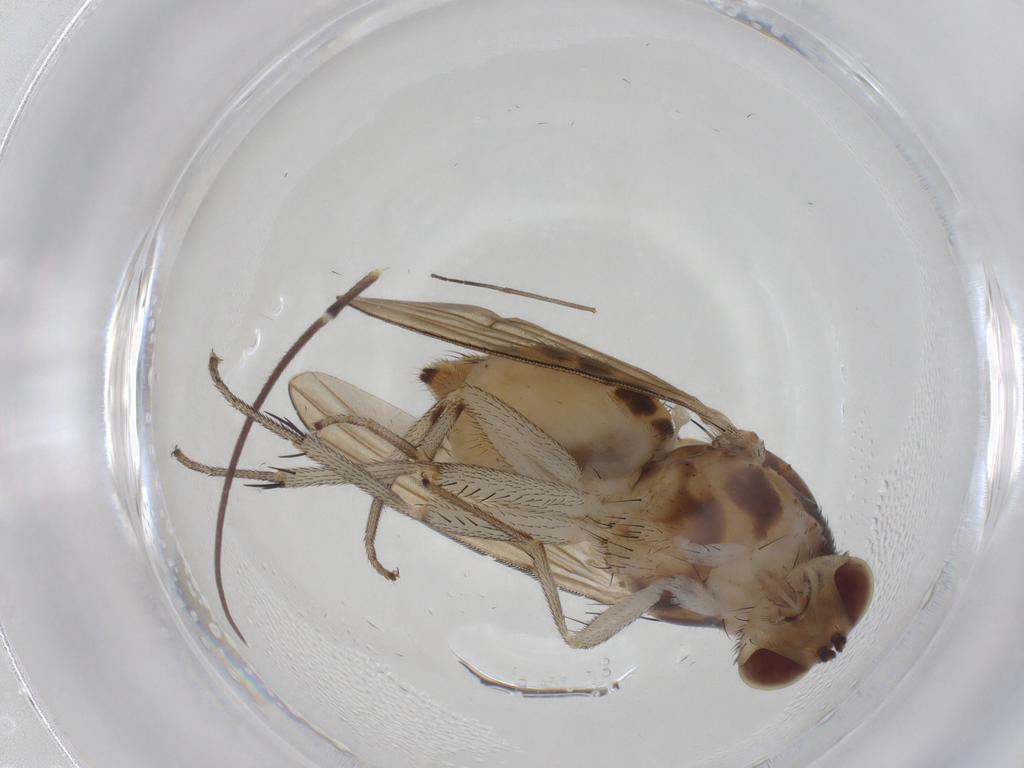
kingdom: Animalia
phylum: Arthropoda
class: Insecta
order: Diptera
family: Sciaridae
